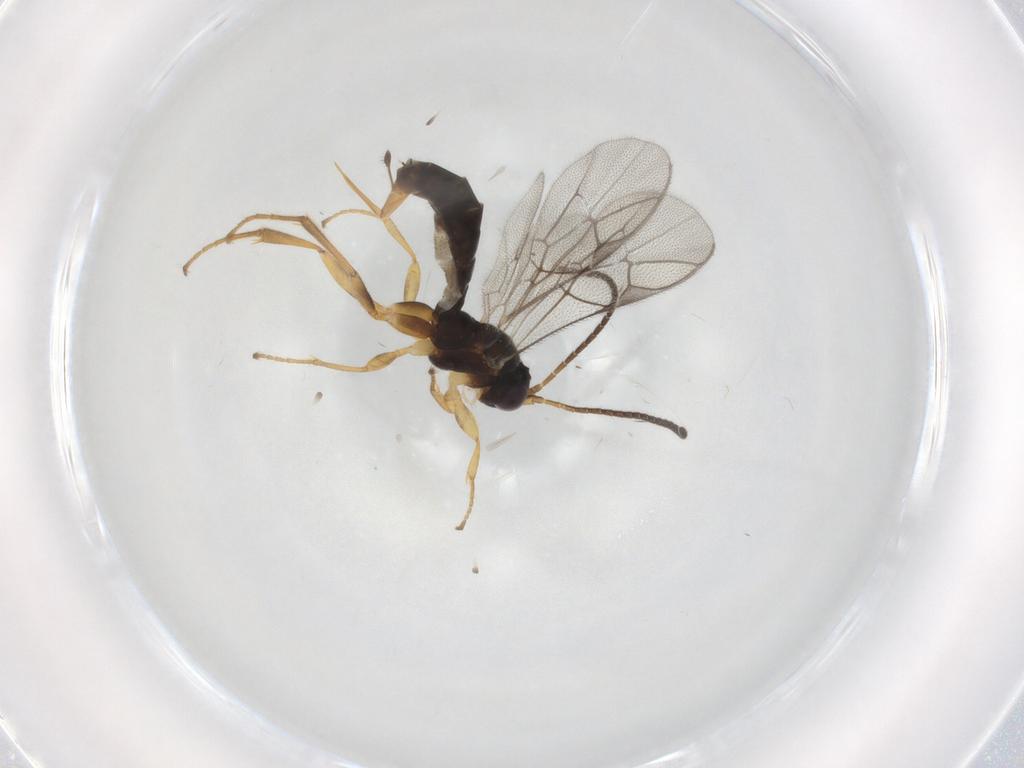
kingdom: Animalia
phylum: Arthropoda
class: Insecta
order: Hymenoptera
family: Ichneumonidae
